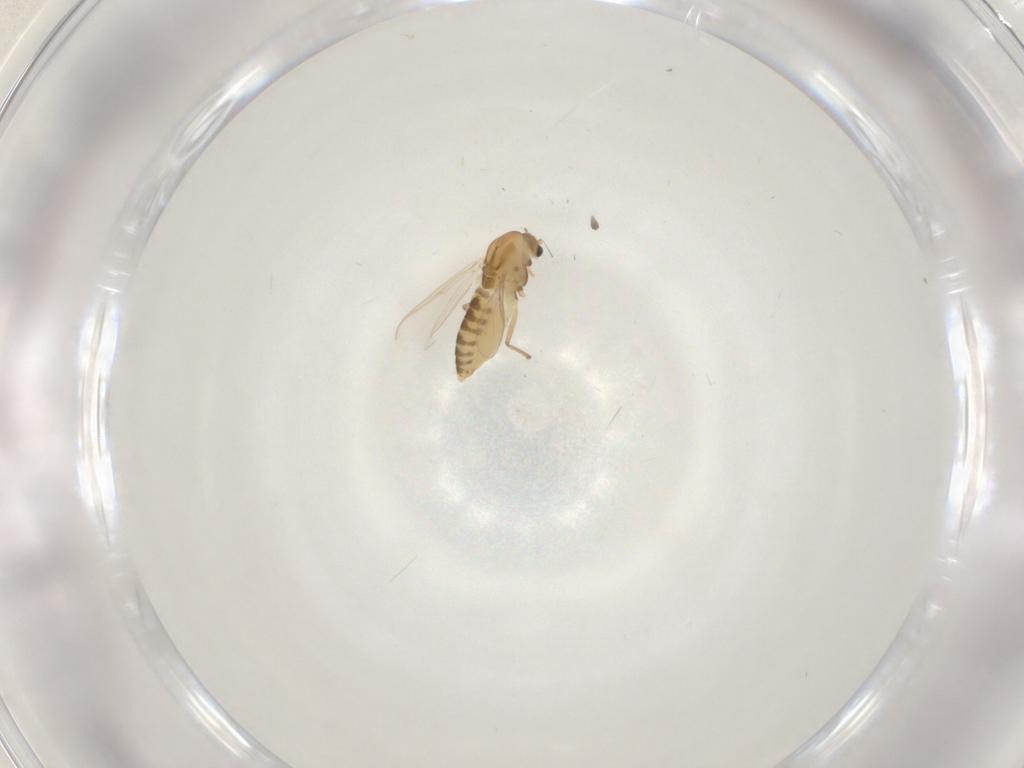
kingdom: Animalia
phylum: Arthropoda
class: Insecta
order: Diptera
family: Chironomidae
